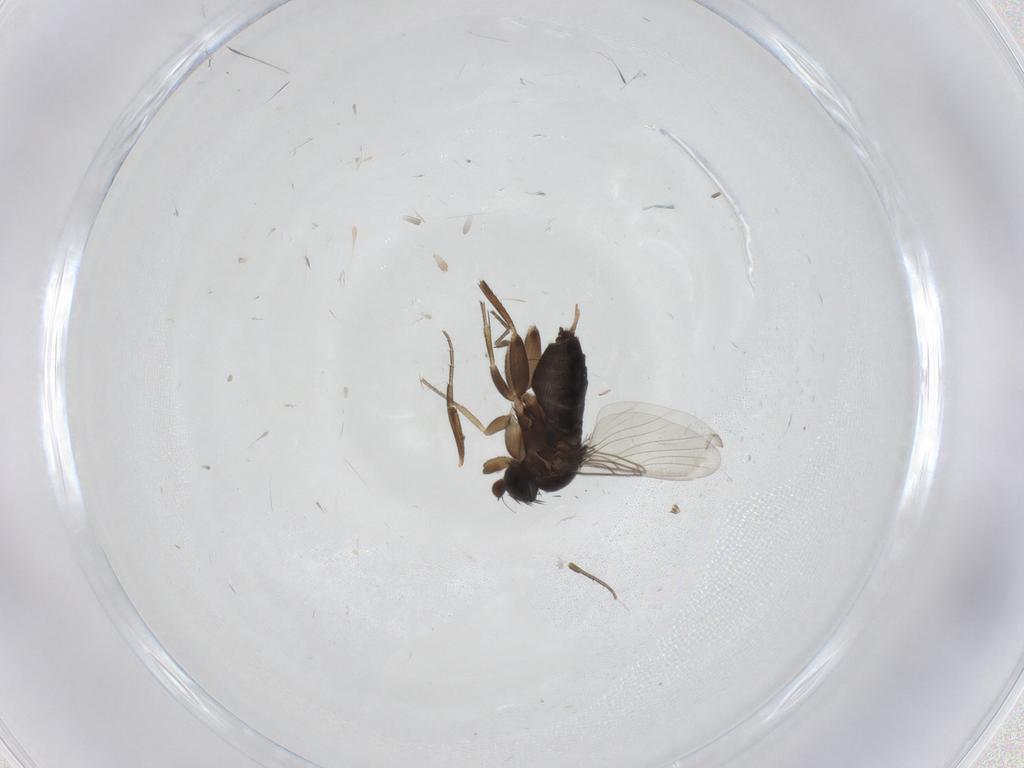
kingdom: Animalia
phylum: Arthropoda
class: Insecta
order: Diptera
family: Phoridae
